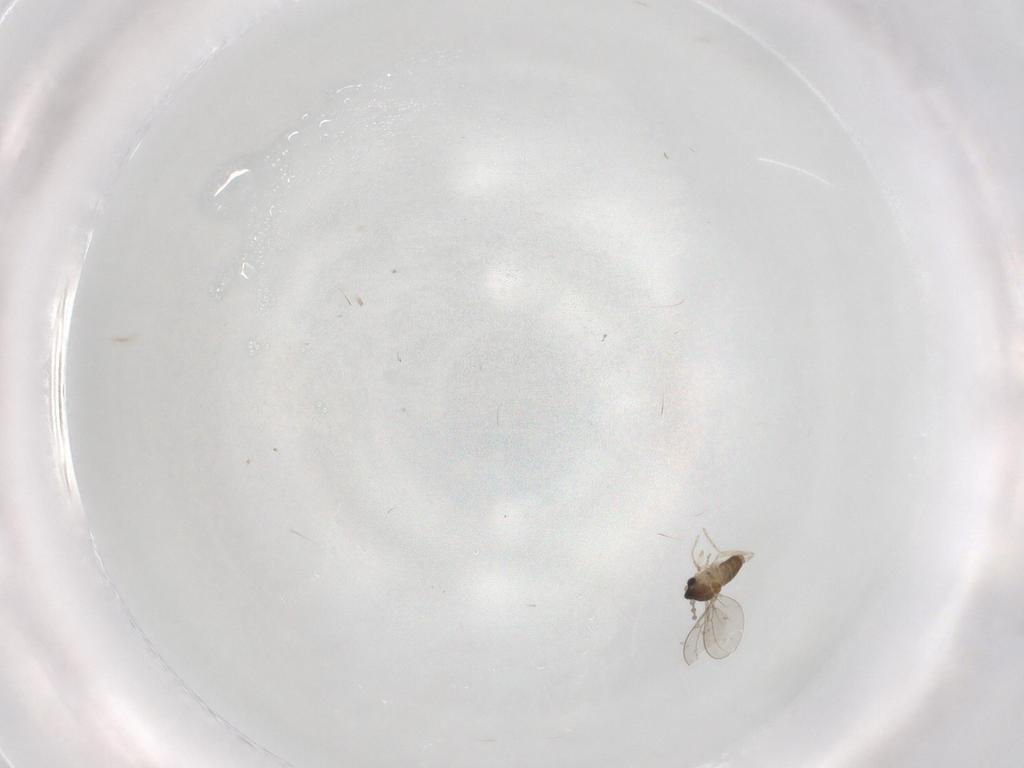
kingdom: Animalia
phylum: Arthropoda
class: Insecta
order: Diptera
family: Cecidomyiidae
